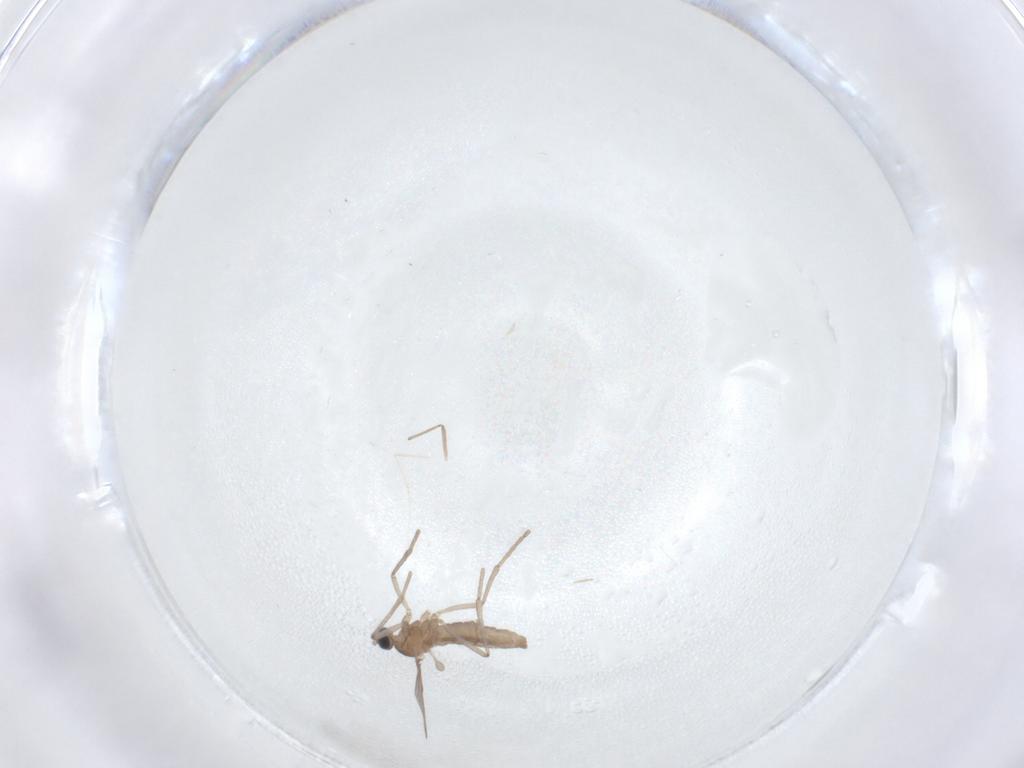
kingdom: Animalia
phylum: Arthropoda
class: Insecta
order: Diptera
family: Cecidomyiidae
